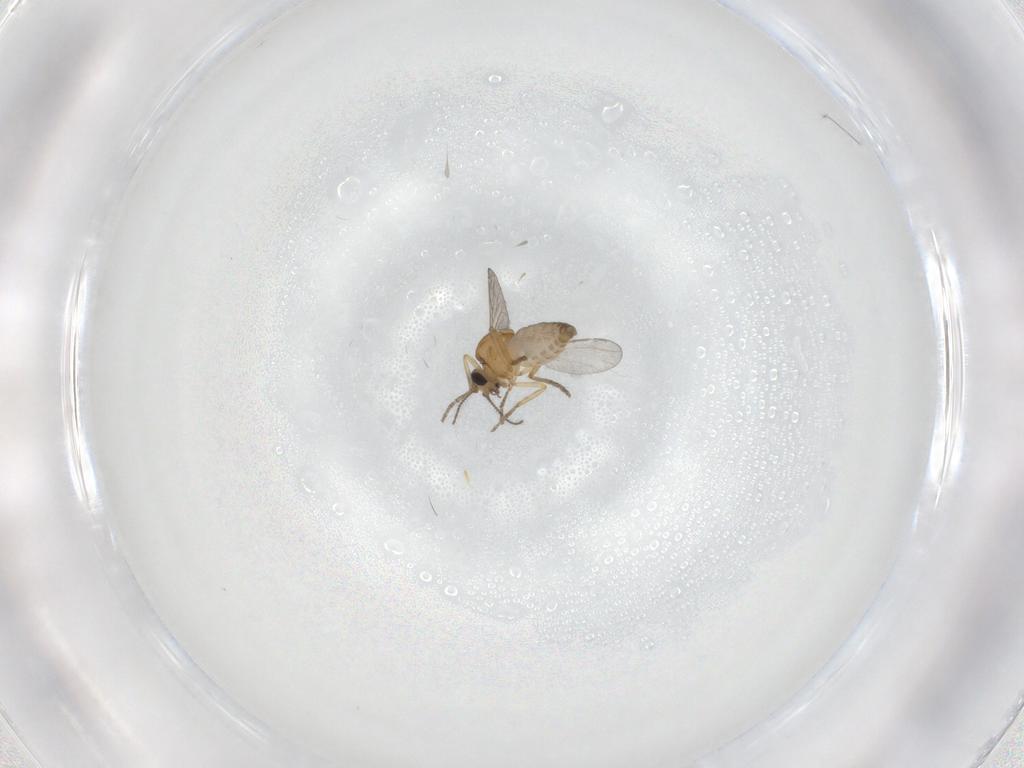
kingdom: Animalia
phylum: Arthropoda
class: Insecta
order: Diptera
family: Ceratopogonidae
